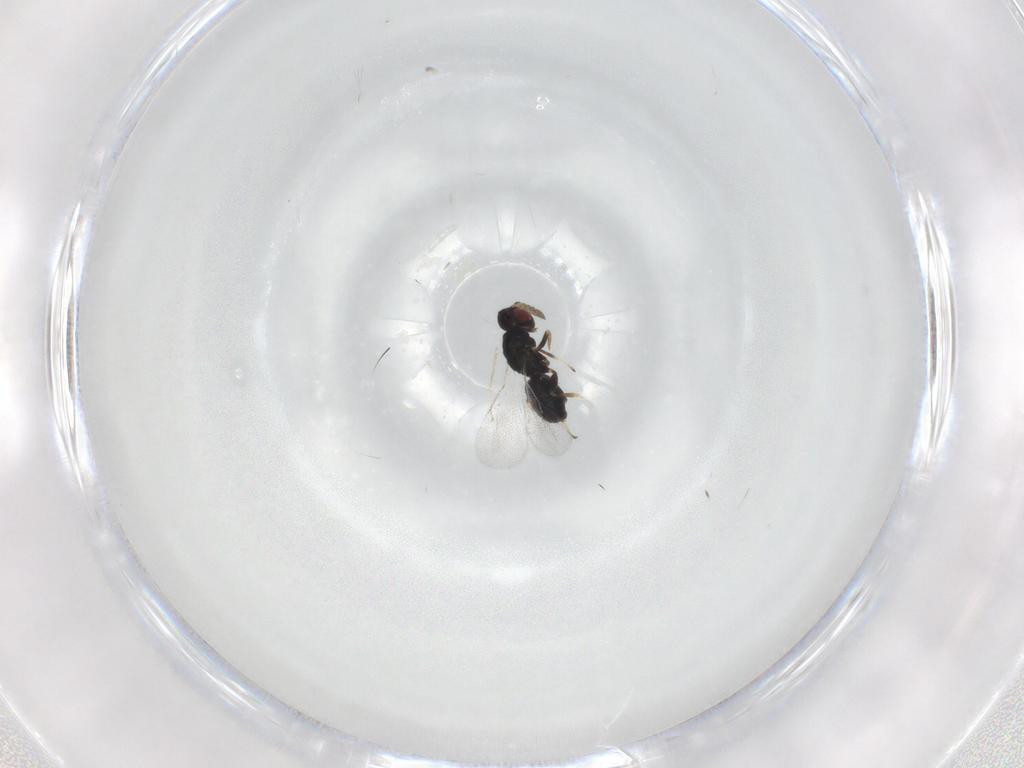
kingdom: Animalia
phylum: Arthropoda
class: Insecta
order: Hymenoptera
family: Eulophidae
